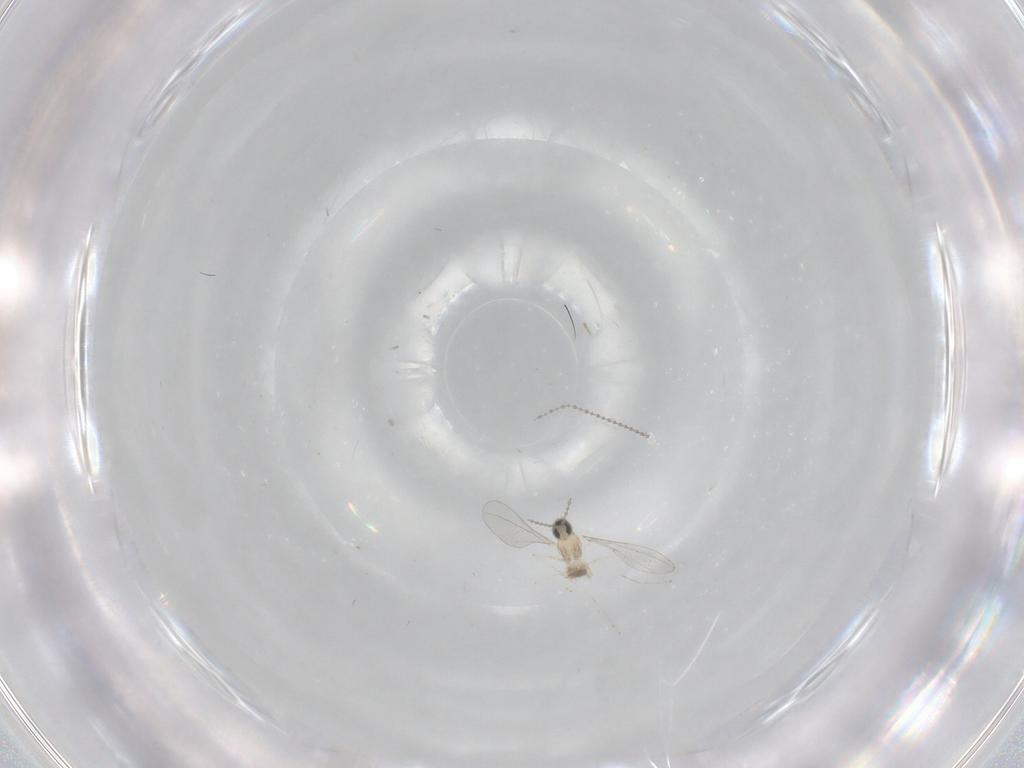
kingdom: Animalia
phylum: Arthropoda
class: Insecta
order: Diptera
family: Cecidomyiidae
